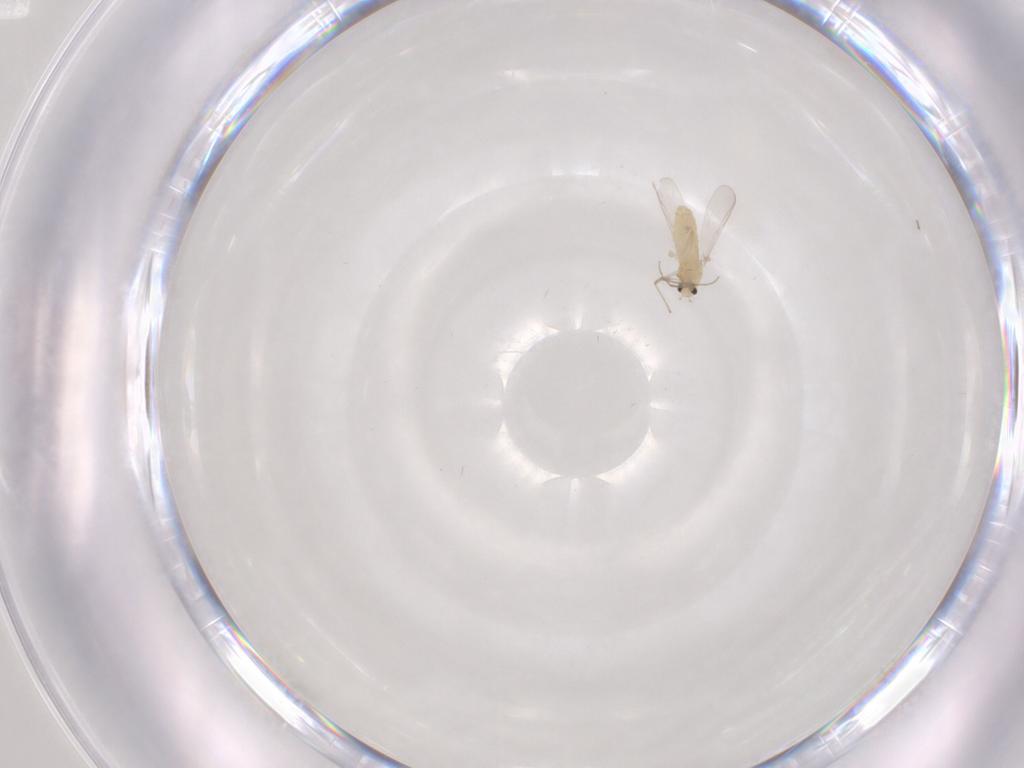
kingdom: Animalia
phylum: Arthropoda
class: Insecta
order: Diptera
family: Chironomidae
